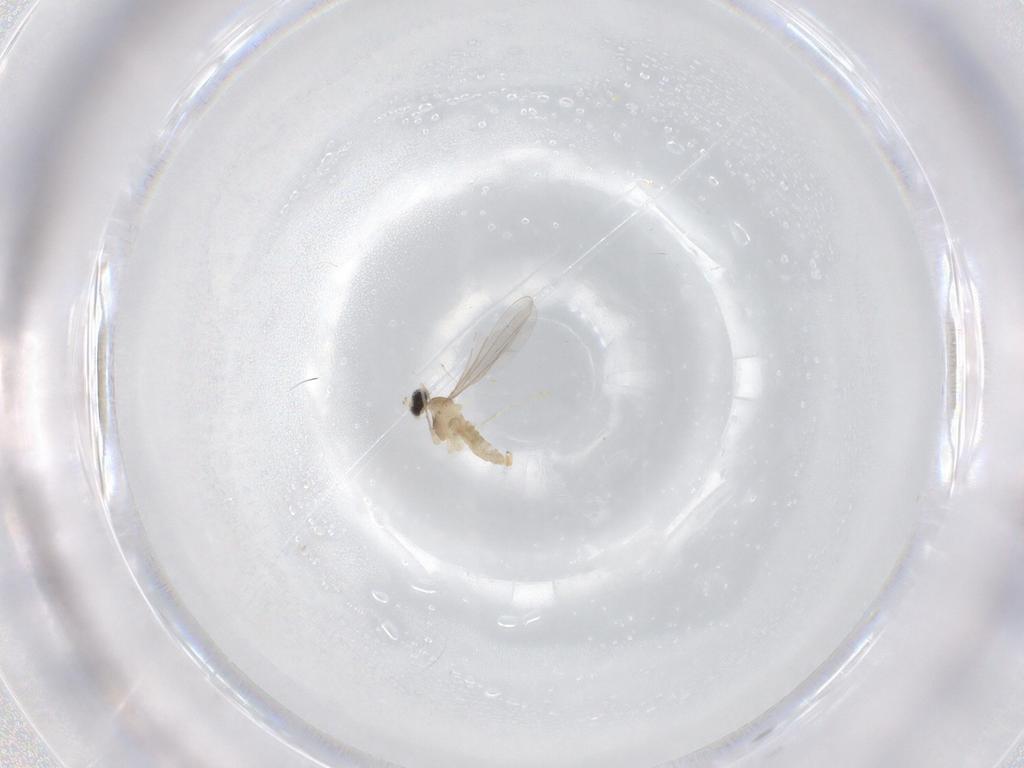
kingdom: Animalia
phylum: Arthropoda
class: Insecta
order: Diptera
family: Cecidomyiidae
